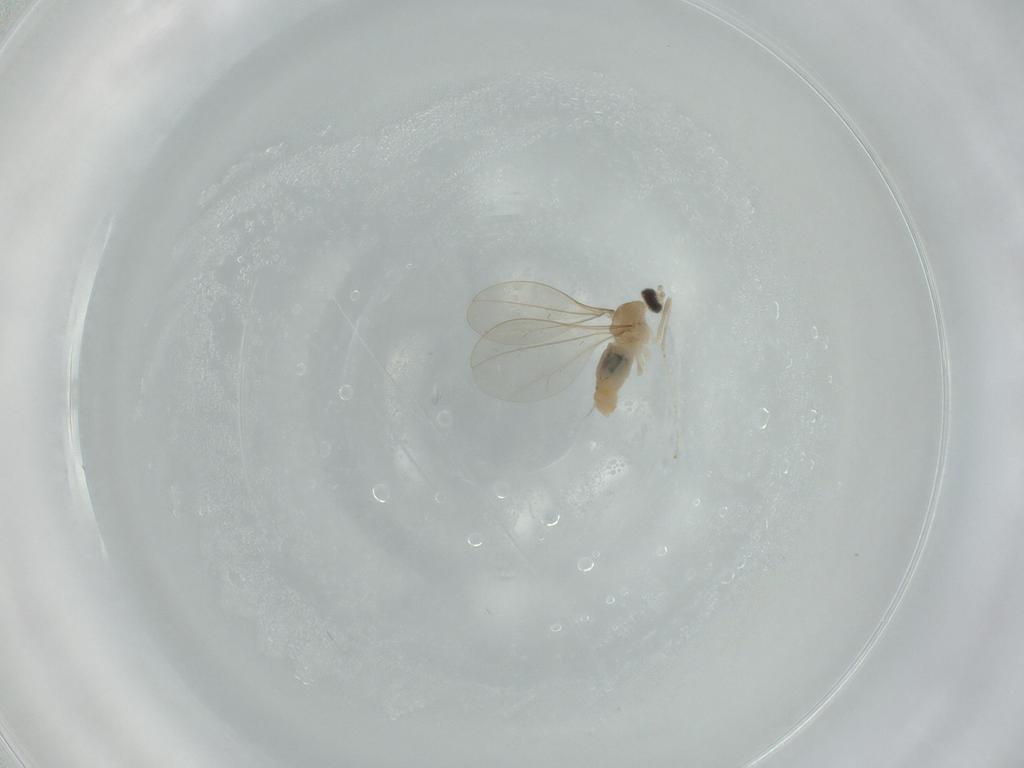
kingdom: Animalia
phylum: Arthropoda
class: Insecta
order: Diptera
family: Cecidomyiidae
